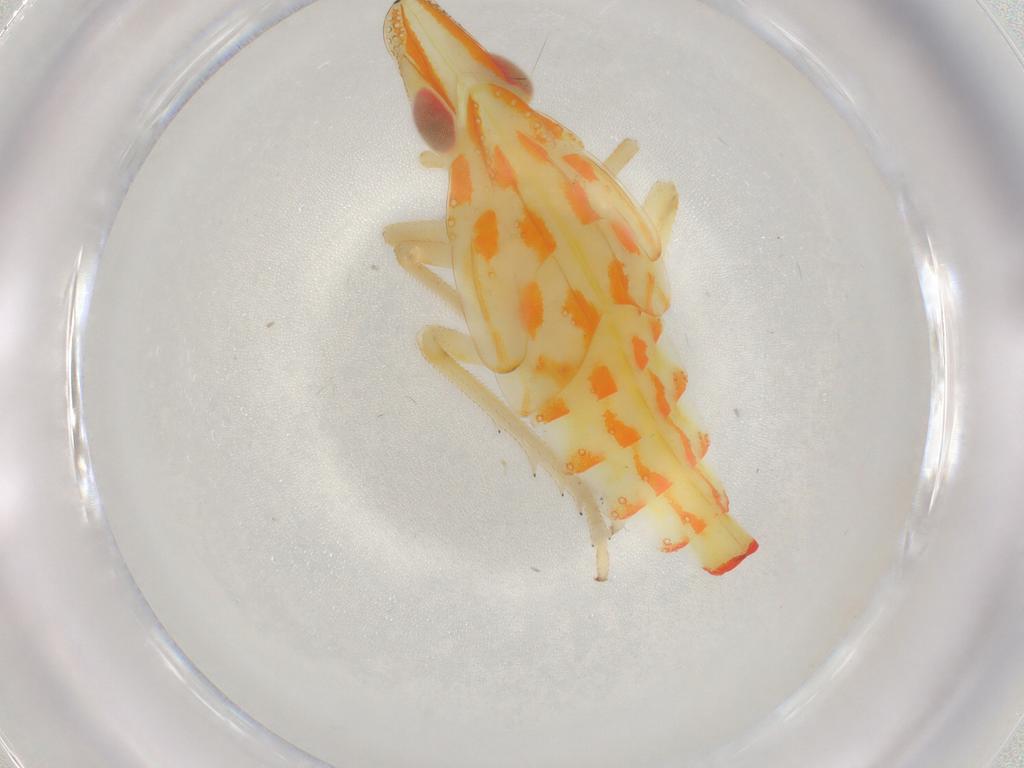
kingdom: Animalia
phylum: Arthropoda
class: Insecta
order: Hemiptera
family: Tropiduchidae
